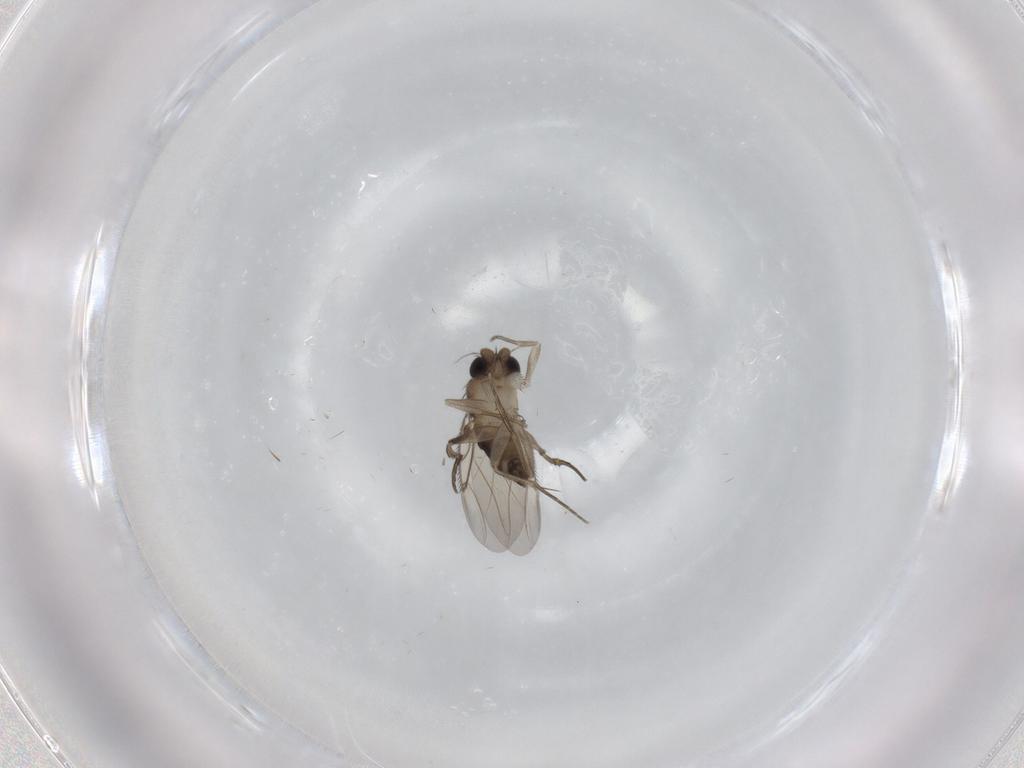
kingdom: Animalia
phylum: Arthropoda
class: Insecta
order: Diptera
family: Phoridae
